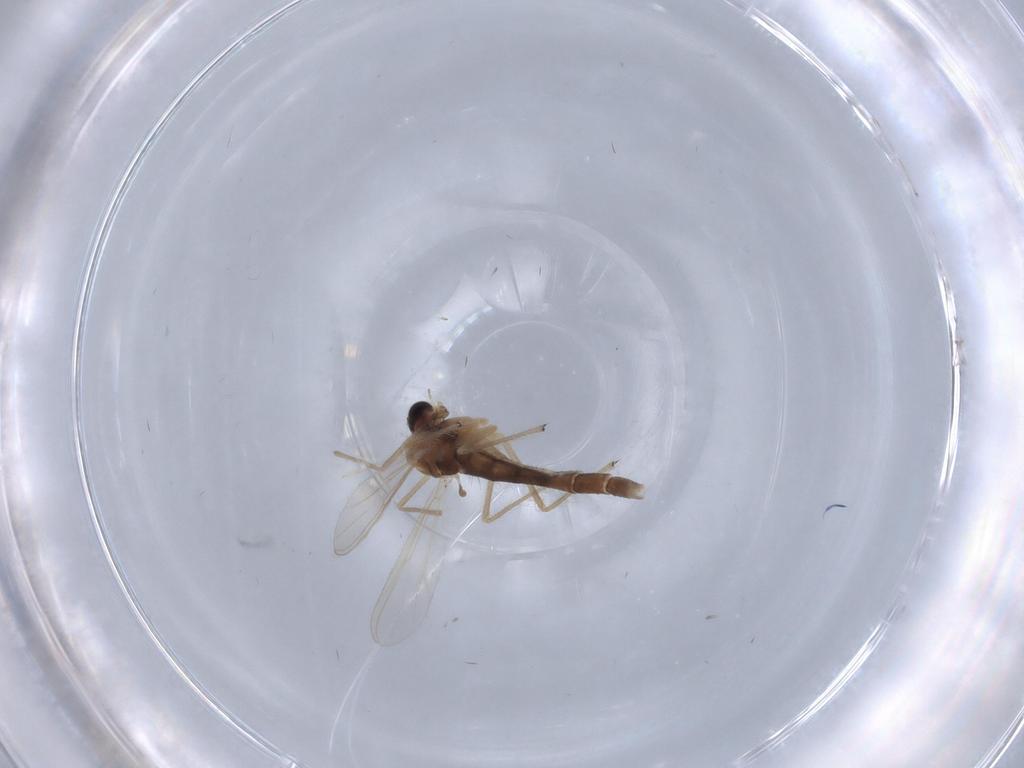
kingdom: Animalia
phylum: Arthropoda
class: Insecta
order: Diptera
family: Chironomidae
